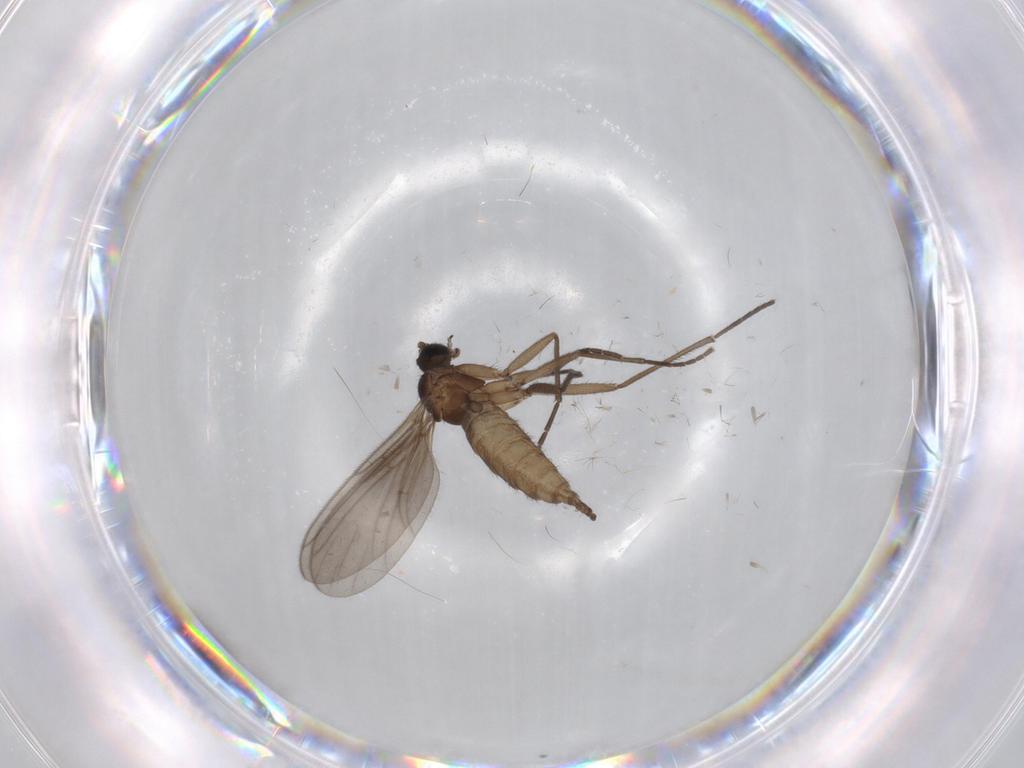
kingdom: Animalia
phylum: Arthropoda
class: Insecta
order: Diptera
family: Sciaridae
